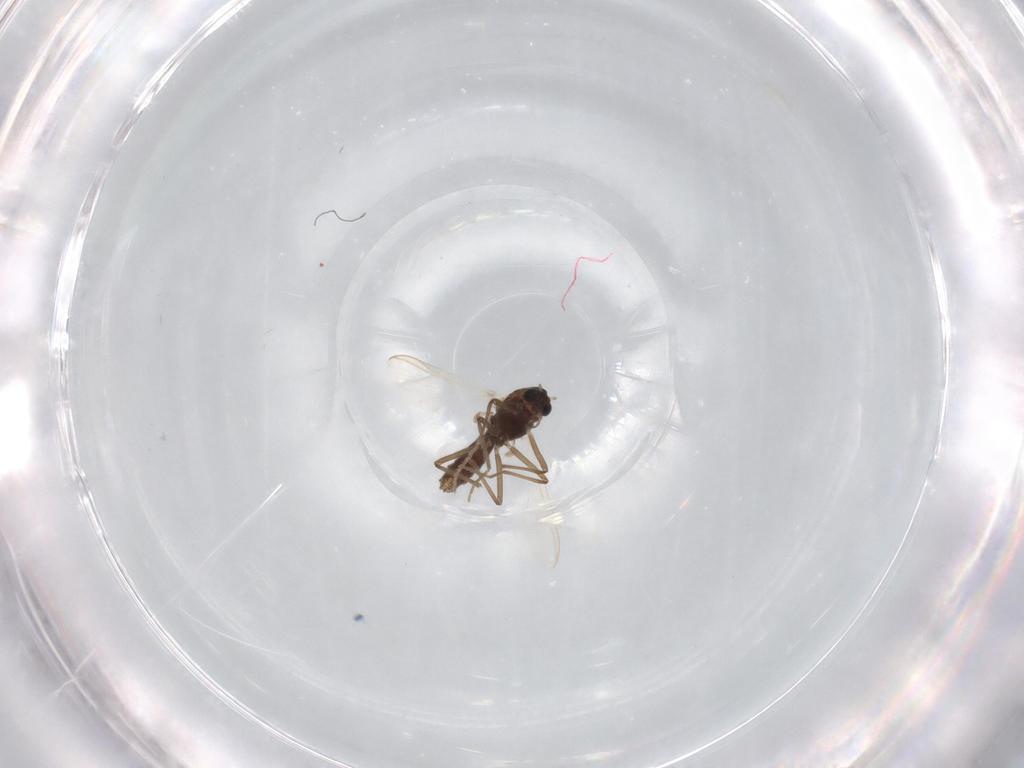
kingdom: Animalia
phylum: Arthropoda
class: Insecta
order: Diptera
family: Chironomidae
